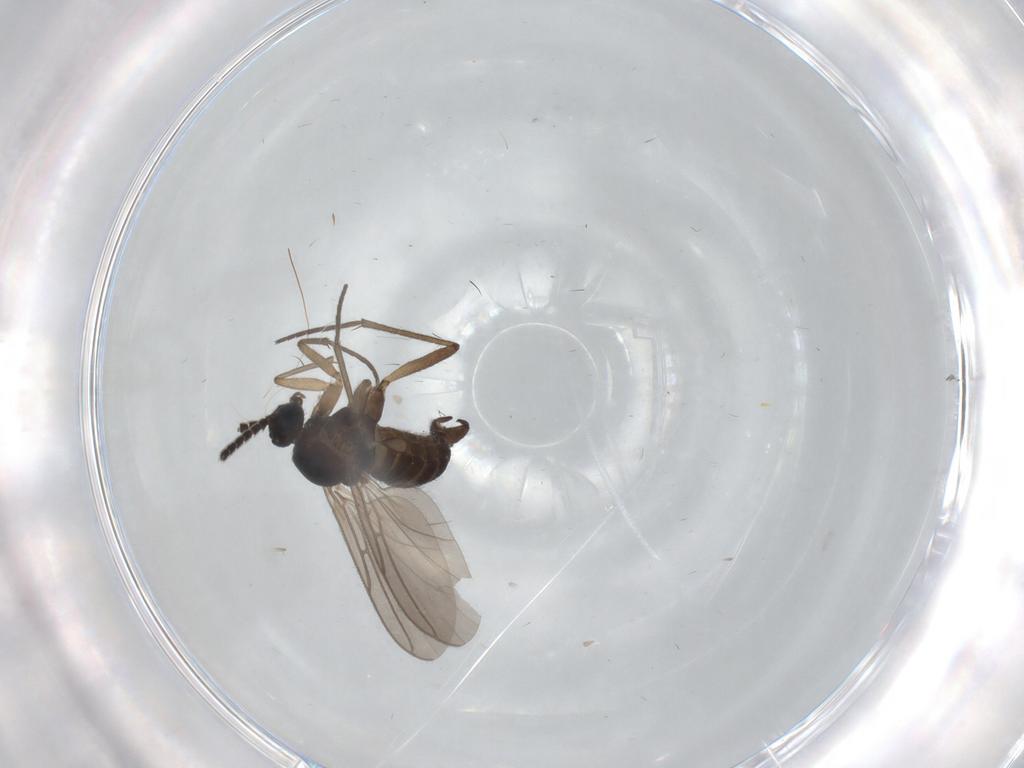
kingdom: Animalia
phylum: Arthropoda
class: Insecta
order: Diptera
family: Sciaridae
